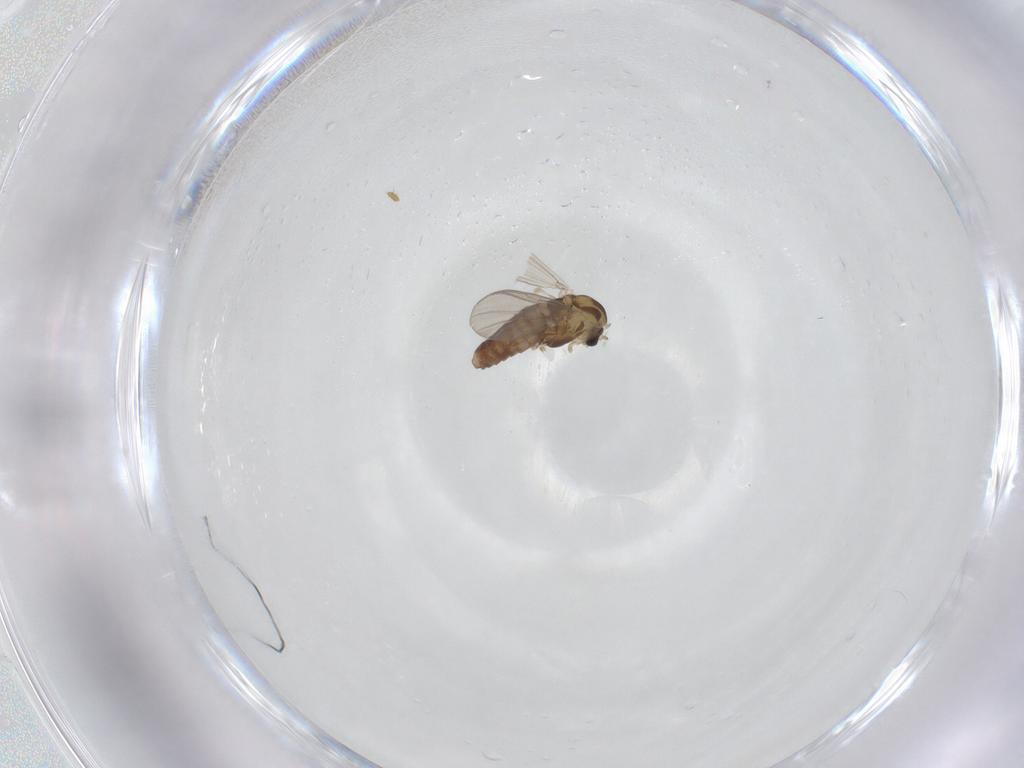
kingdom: Animalia
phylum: Arthropoda
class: Insecta
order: Diptera
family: Chironomidae
